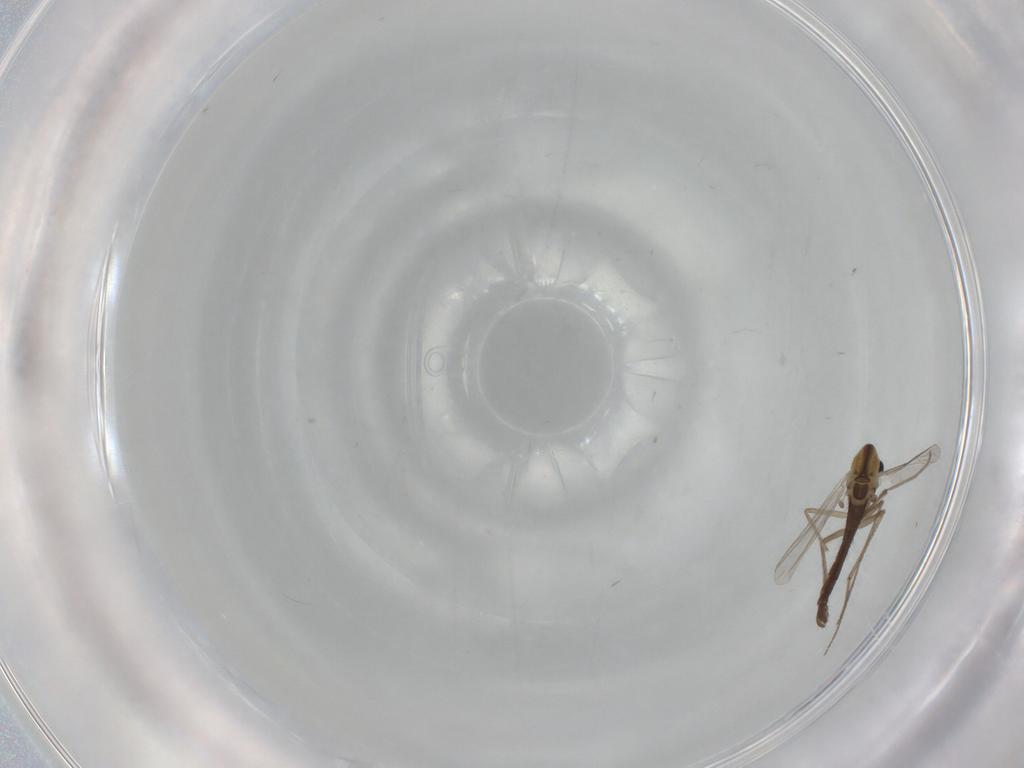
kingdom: Animalia
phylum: Arthropoda
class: Insecta
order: Diptera
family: Chironomidae
